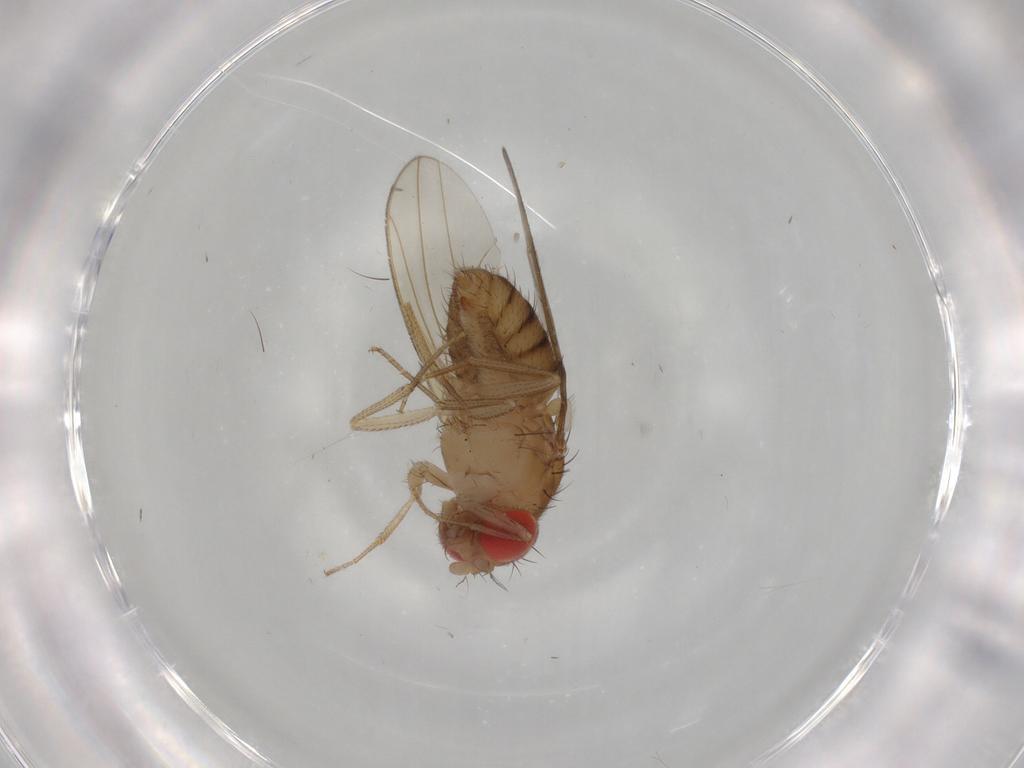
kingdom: Animalia
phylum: Arthropoda
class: Insecta
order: Diptera
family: Drosophilidae
